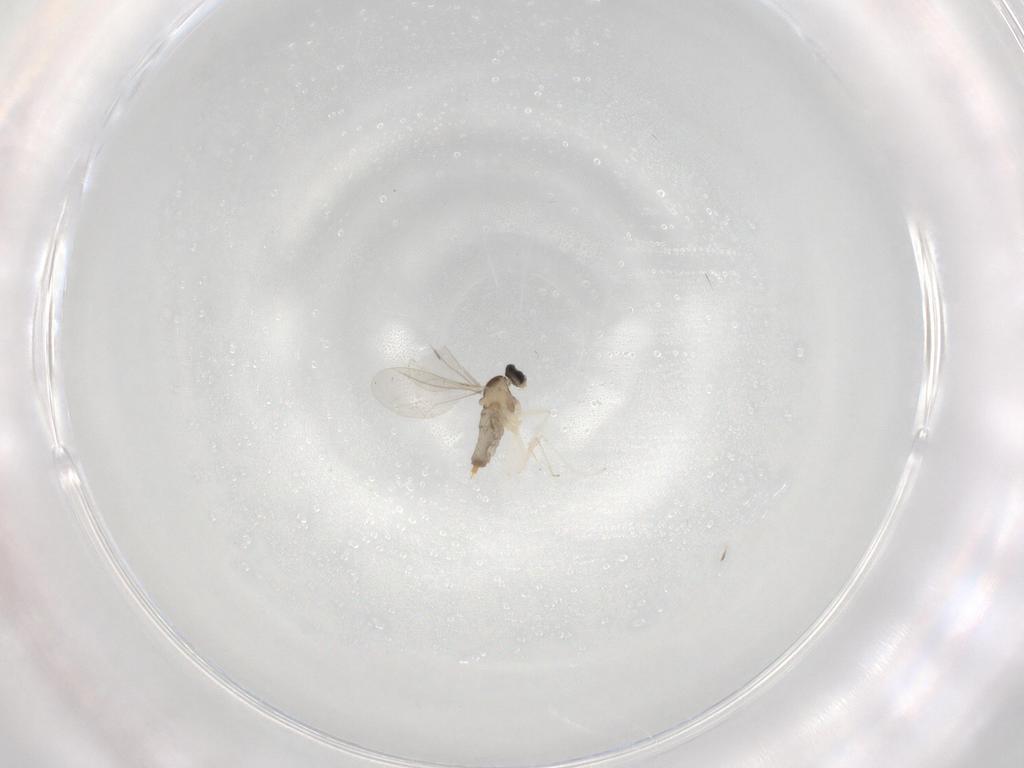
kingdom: Animalia
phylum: Arthropoda
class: Insecta
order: Diptera
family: Cecidomyiidae
